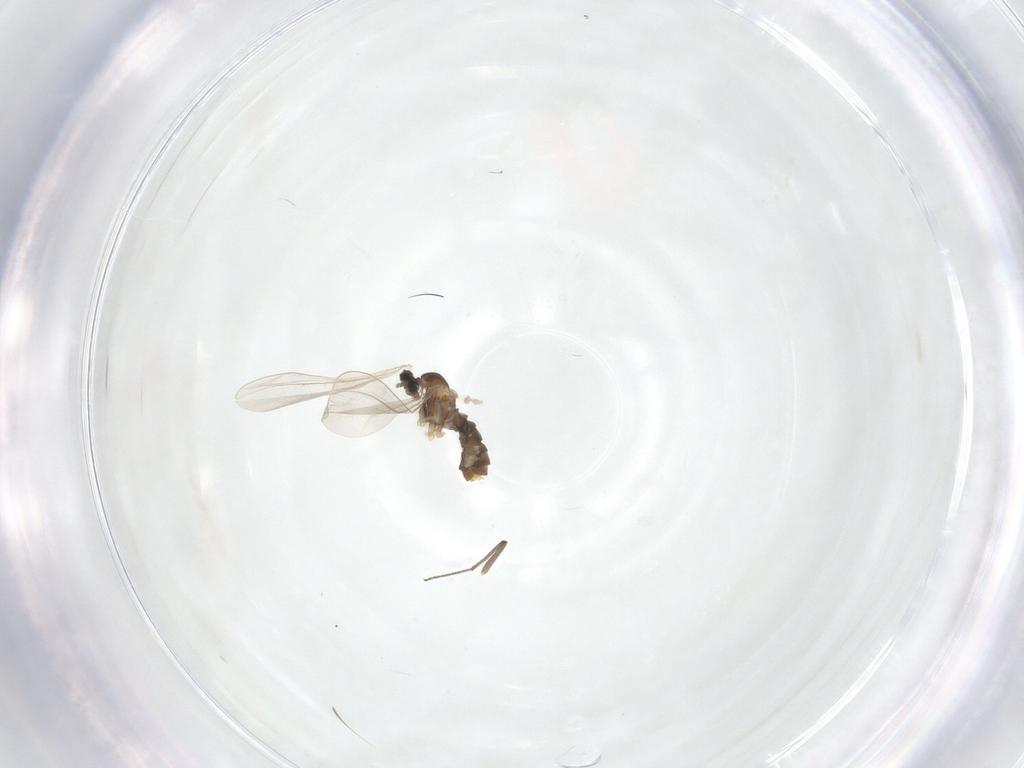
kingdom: Animalia
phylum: Arthropoda
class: Insecta
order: Diptera
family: Cecidomyiidae
